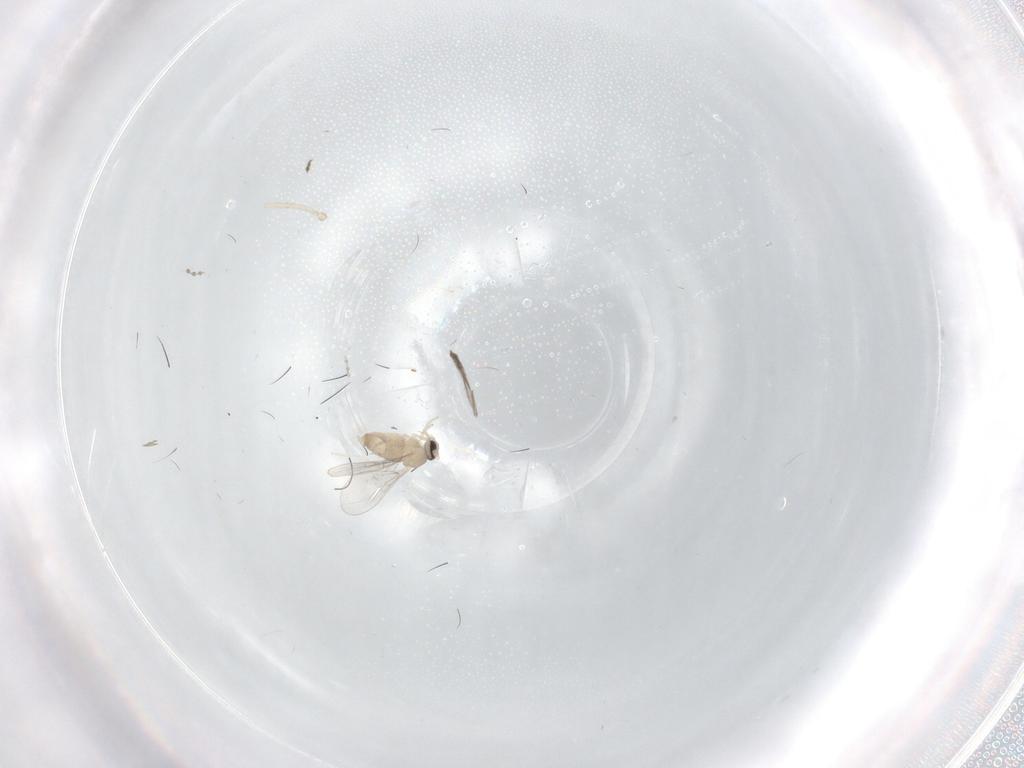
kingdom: Animalia
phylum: Arthropoda
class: Insecta
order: Diptera
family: Cecidomyiidae
